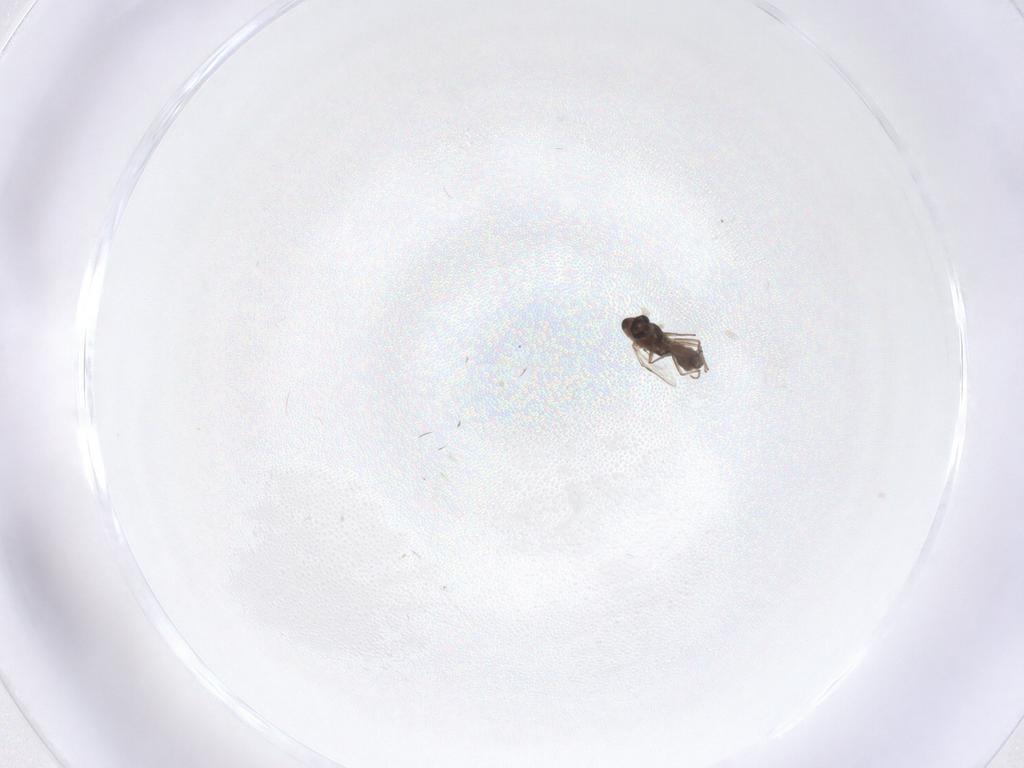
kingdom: Animalia
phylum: Arthropoda
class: Insecta
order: Diptera
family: Chironomidae
